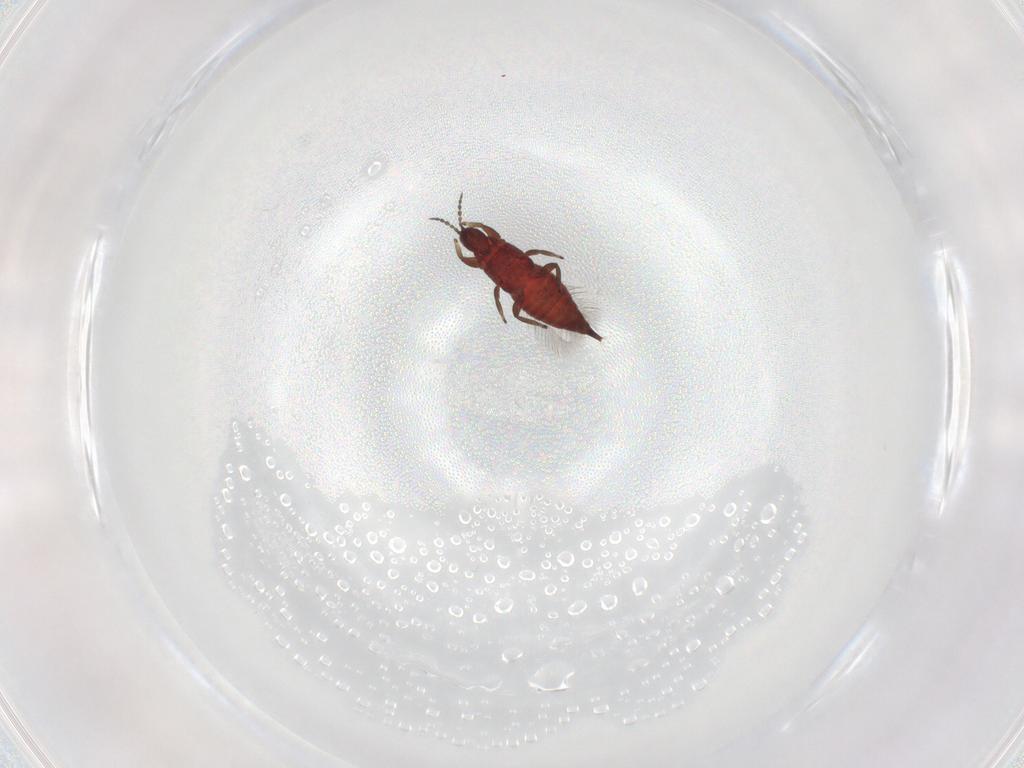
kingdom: Animalia
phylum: Arthropoda
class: Insecta
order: Thysanoptera
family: Phlaeothripidae
